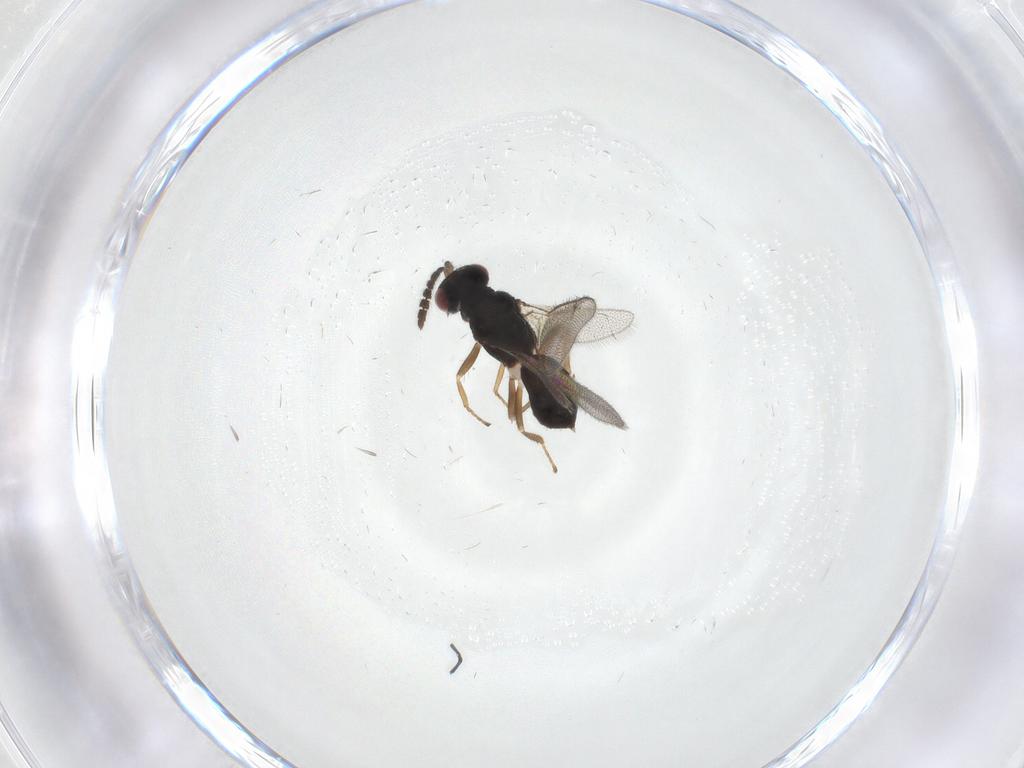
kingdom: Animalia
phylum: Arthropoda
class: Insecta
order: Hymenoptera
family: Eulophidae
